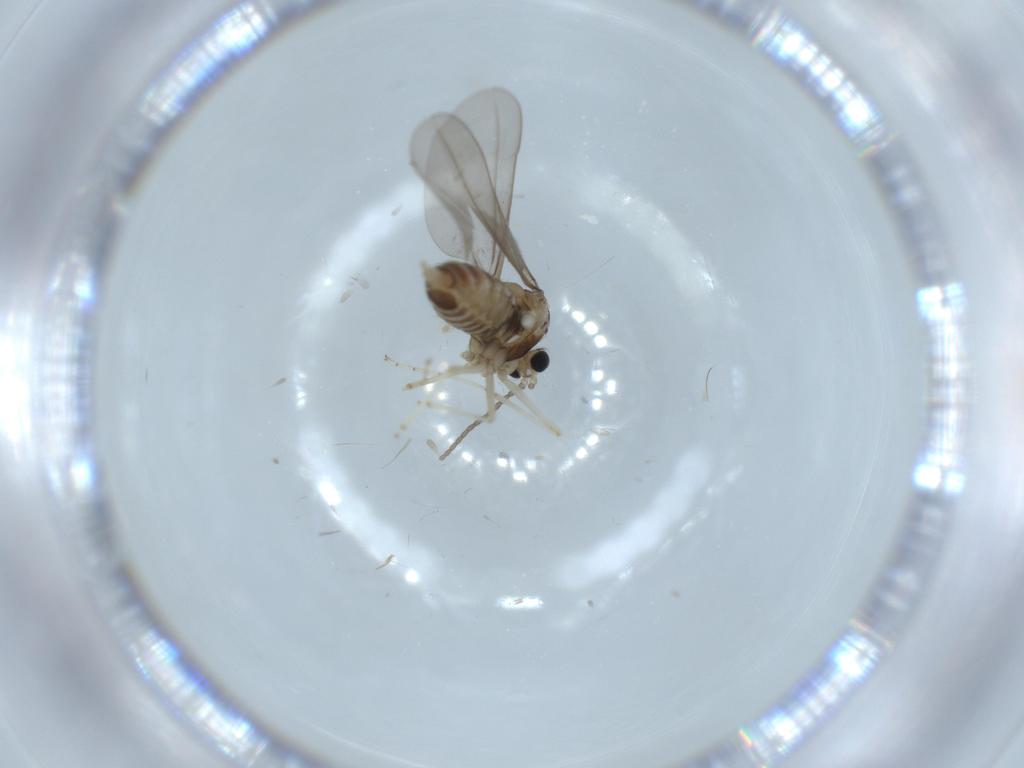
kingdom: Animalia
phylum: Arthropoda
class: Insecta
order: Diptera
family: Cecidomyiidae
